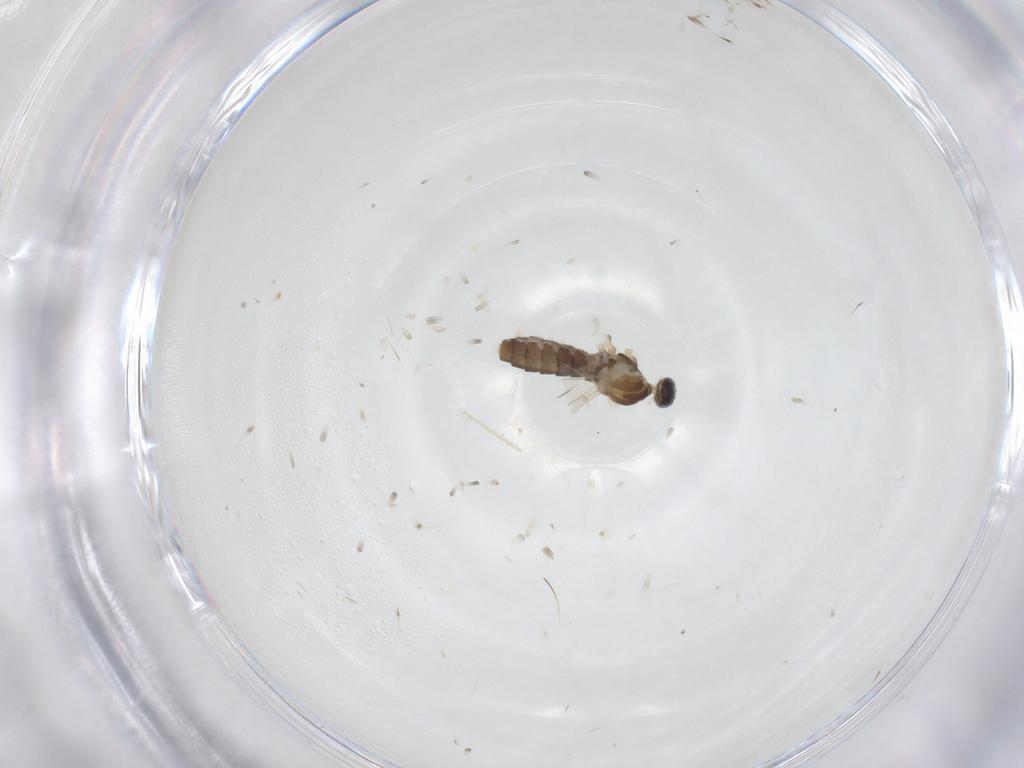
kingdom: Animalia
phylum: Arthropoda
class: Insecta
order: Diptera
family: Cecidomyiidae
